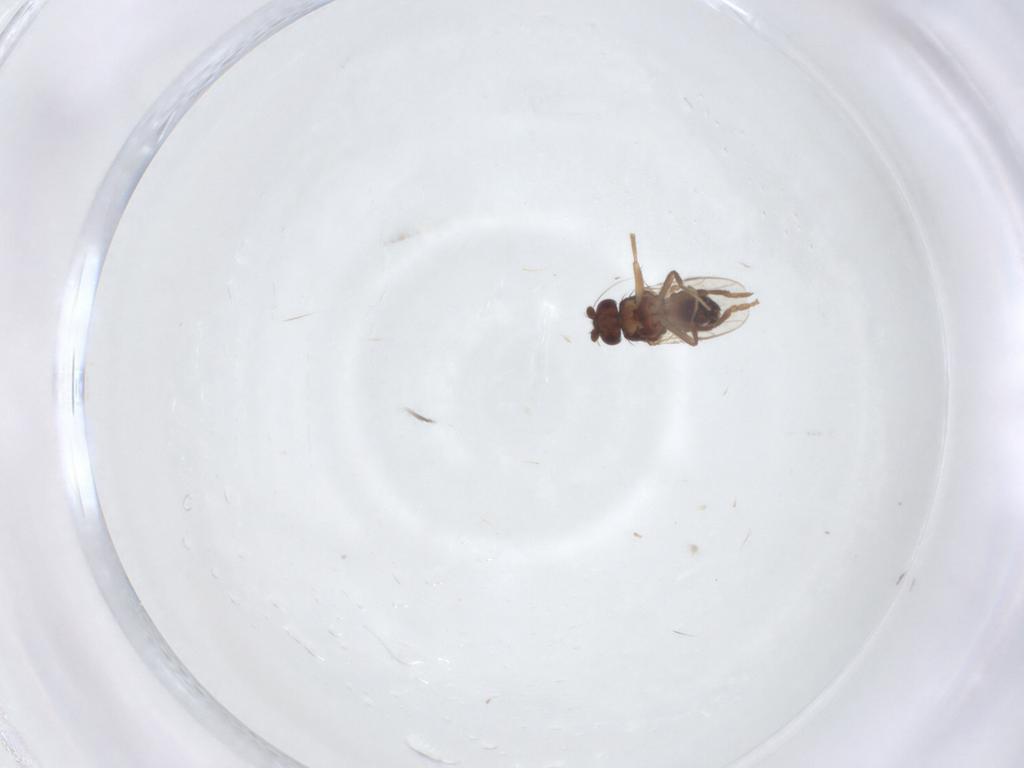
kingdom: Animalia
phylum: Arthropoda
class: Insecta
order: Diptera
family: Sphaeroceridae
